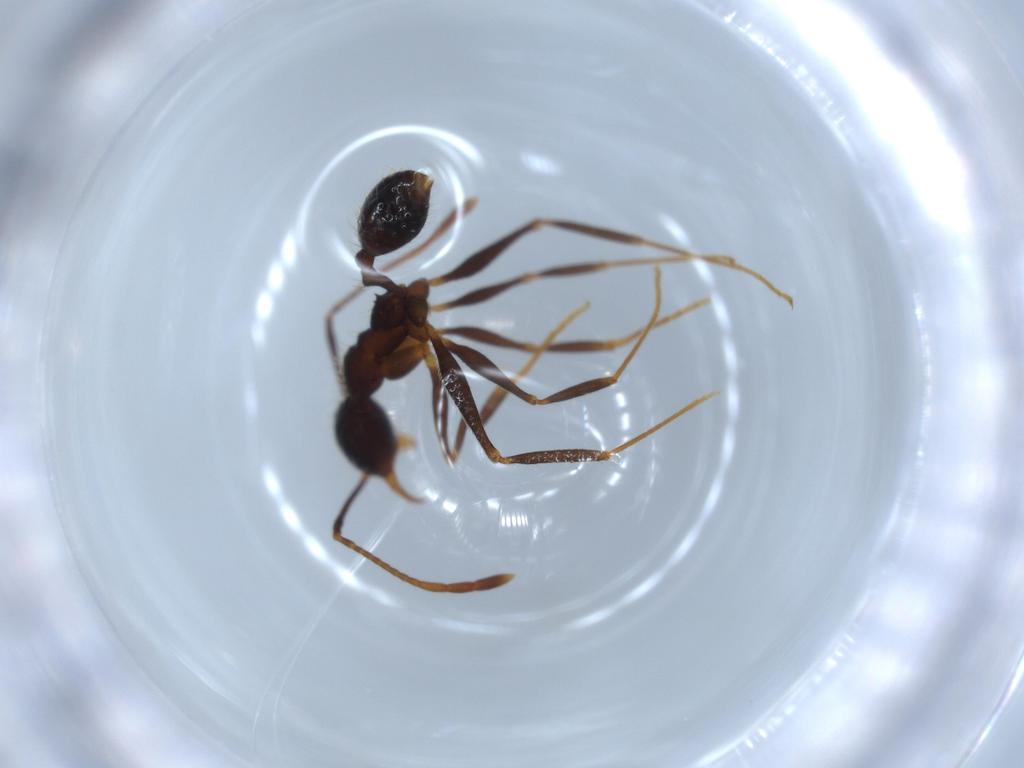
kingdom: Animalia
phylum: Arthropoda
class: Insecta
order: Hymenoptera
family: Formicidae
